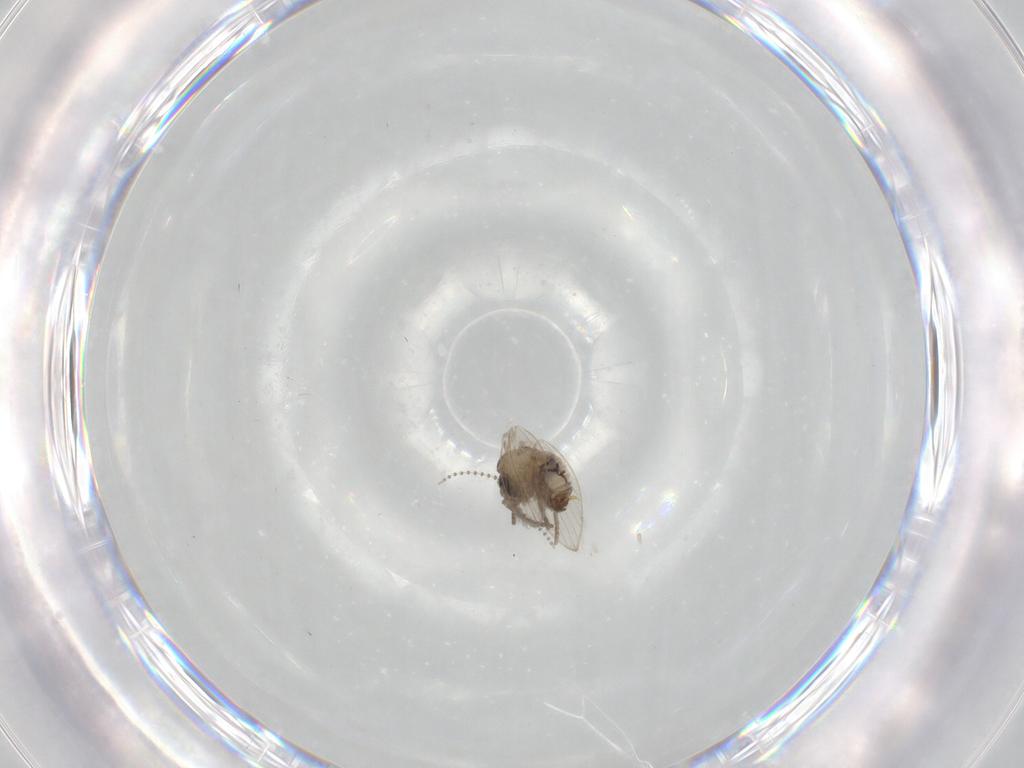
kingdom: Animalia
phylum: Arthropoda
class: Insecta
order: Diptera
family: Psychodidae
